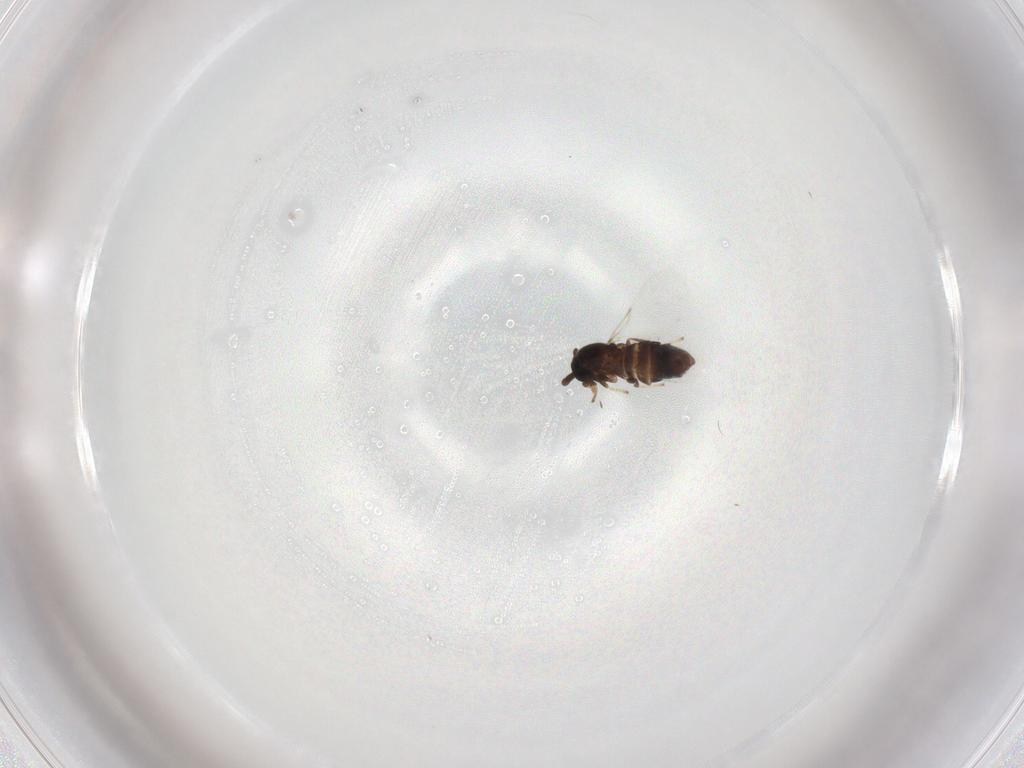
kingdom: Animalia
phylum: Arthropoda
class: Insecta
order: Diptera
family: Scatopsidae
